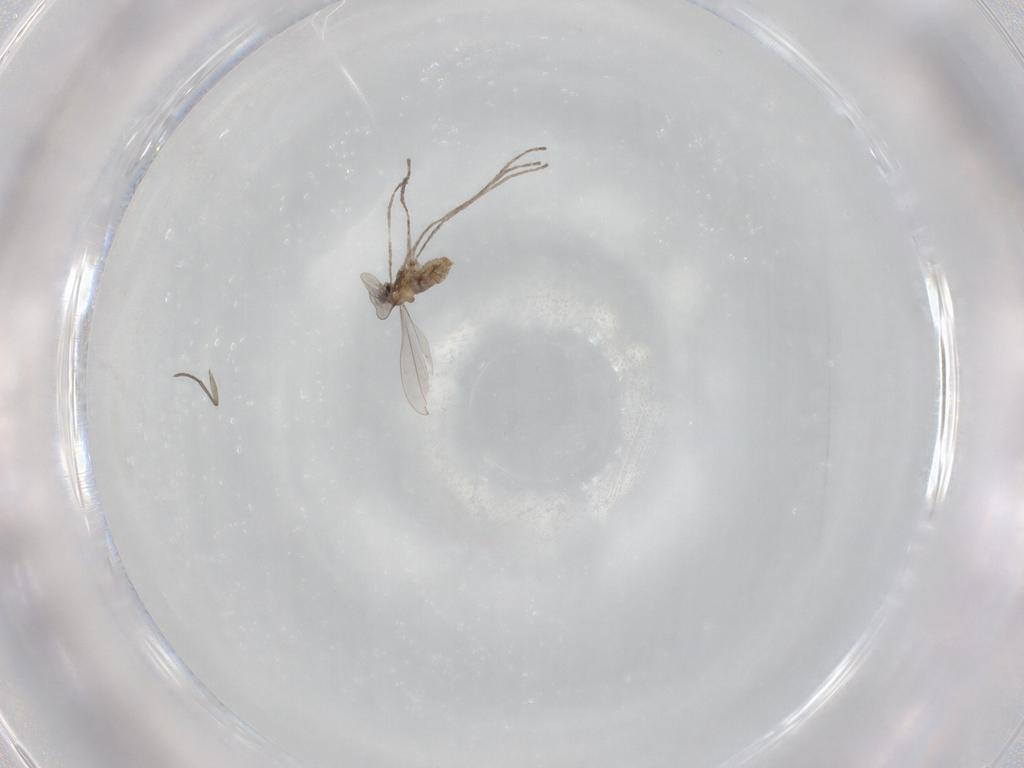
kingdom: Animalia
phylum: Arthropoda
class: Insecta
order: Diptera
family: Cecidomyiidae
